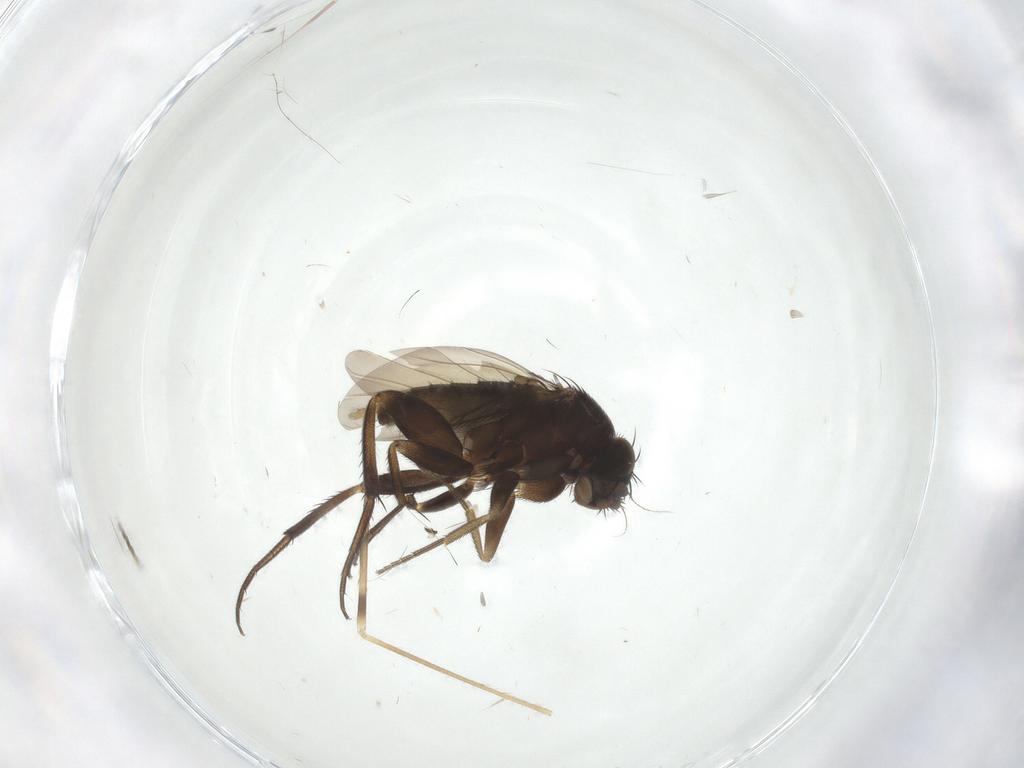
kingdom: Animalia
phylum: Arthropoda
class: Insecta
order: Diptera
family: Phoridae
